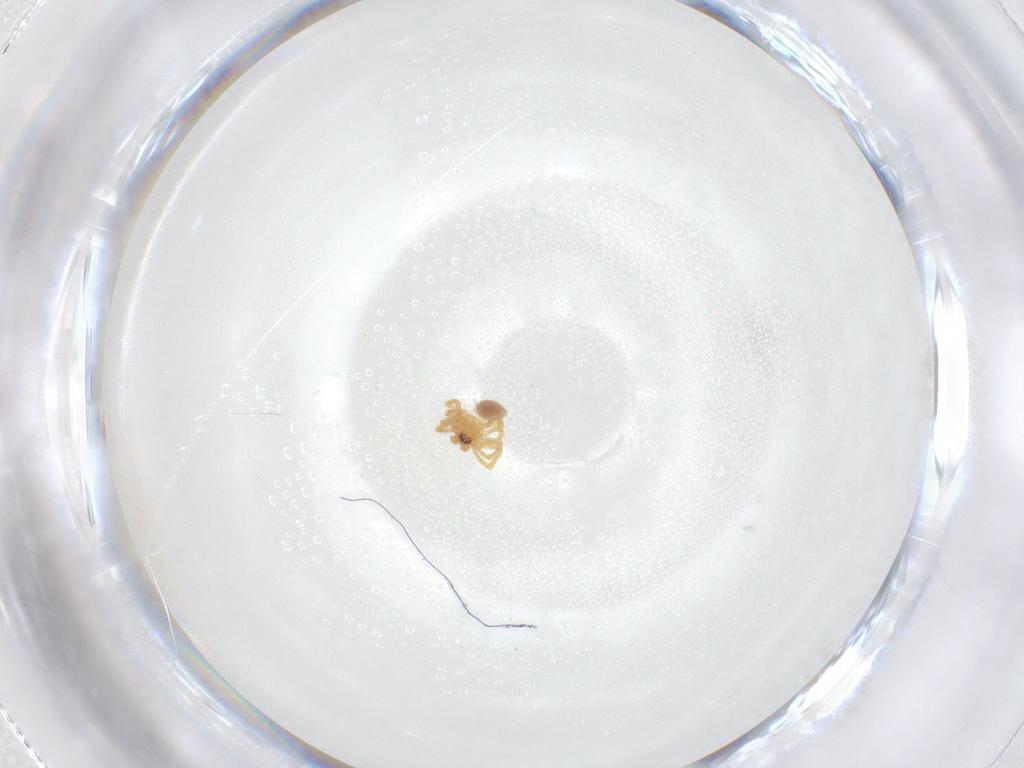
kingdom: Animalia
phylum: Arthropoda
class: Arachnida
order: Araneae
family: Theridiidae
